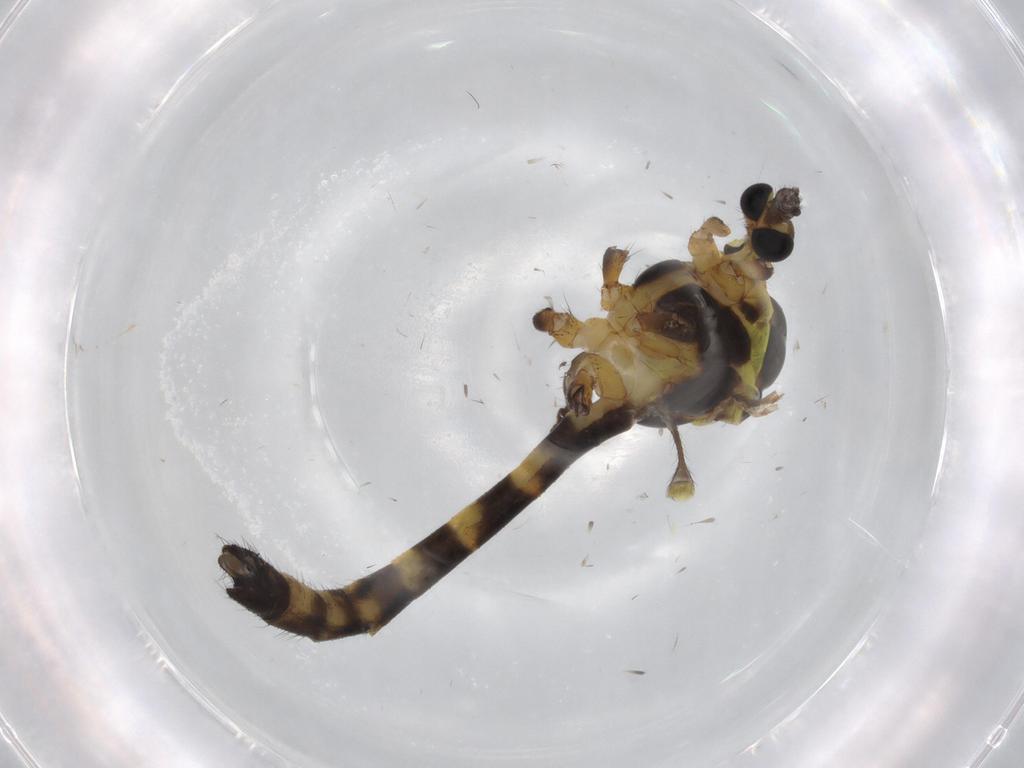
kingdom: Animalia
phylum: Arthropoda
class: Insecta
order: Diptera
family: Limoniidae
